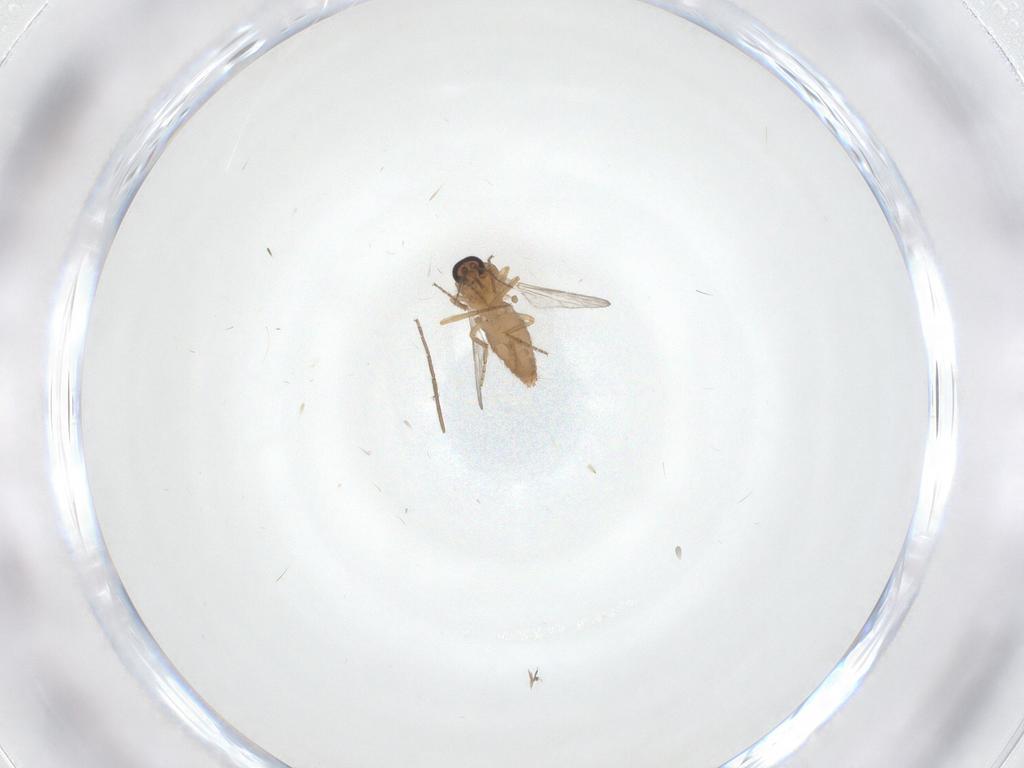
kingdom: Animalia
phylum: Arthropoda
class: Insecta
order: Diptera
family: Ceratopogonidae
